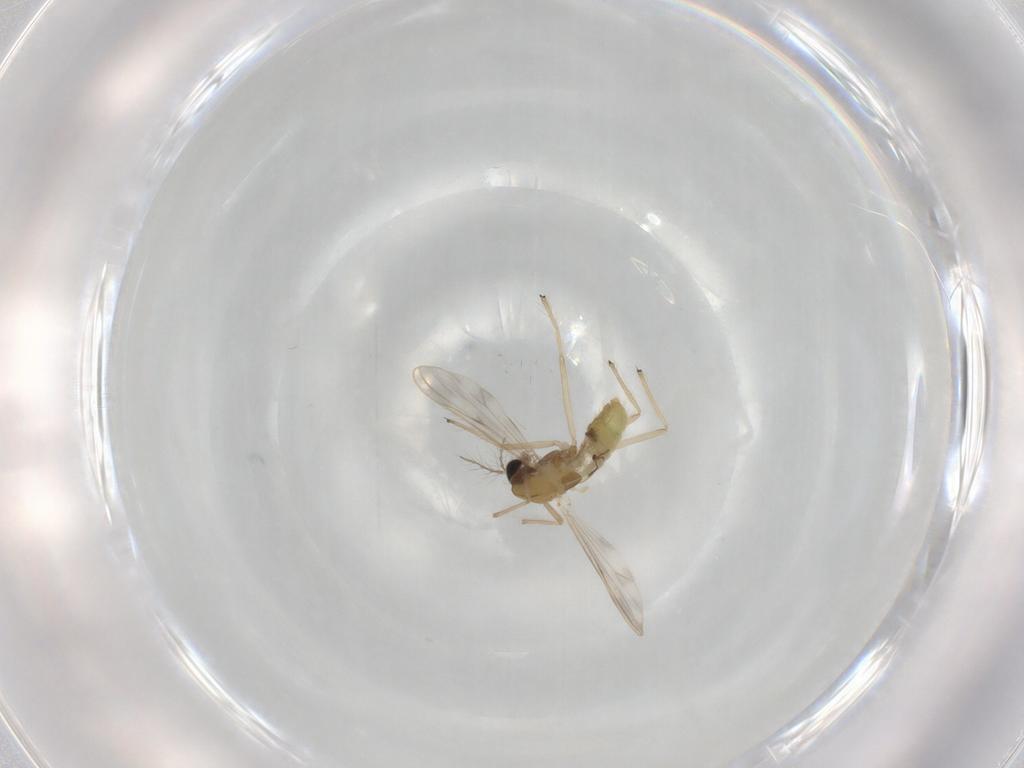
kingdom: Animalia
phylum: Arthropoda
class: Insecta
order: Diptera
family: Chironomidae
